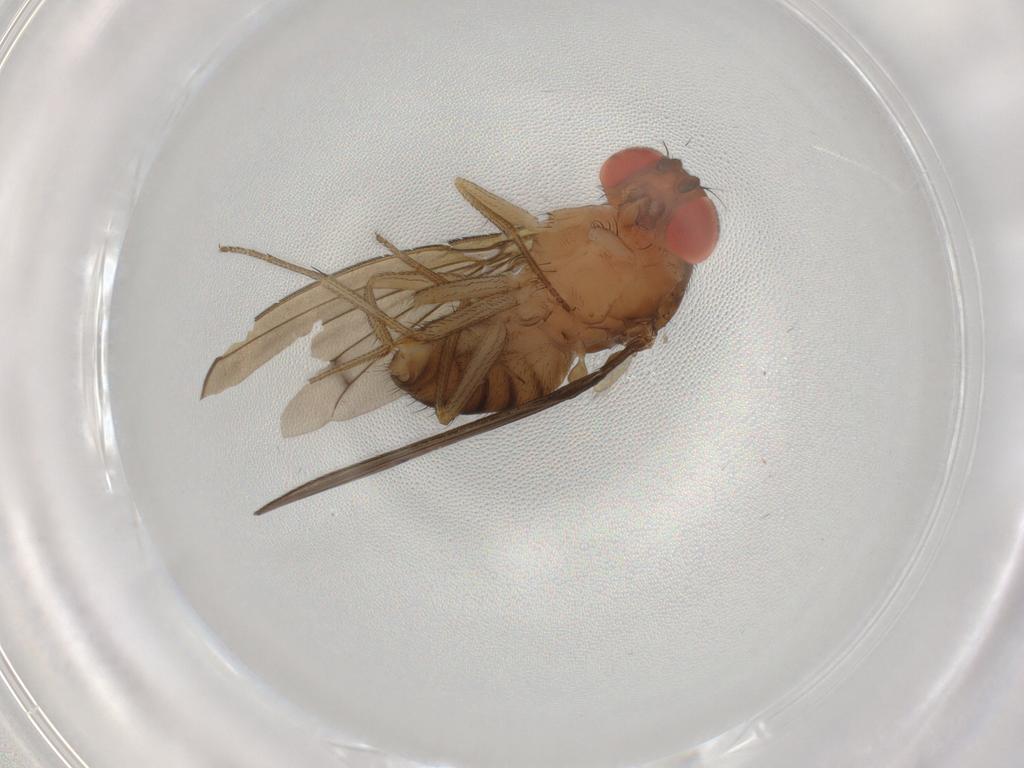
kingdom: Animalia
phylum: Arthropoda
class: Insecta
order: Diptera
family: Drosophilidae
